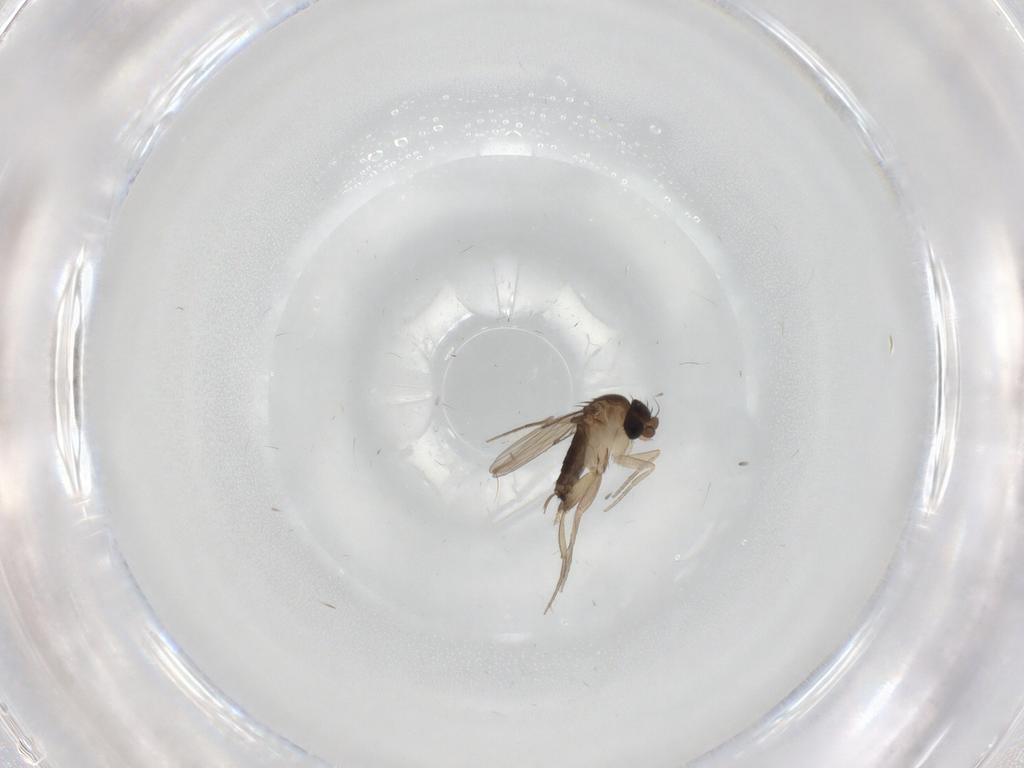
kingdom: Animalia
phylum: Arthropoda
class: Insecta
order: Diptera
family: Phoridae
